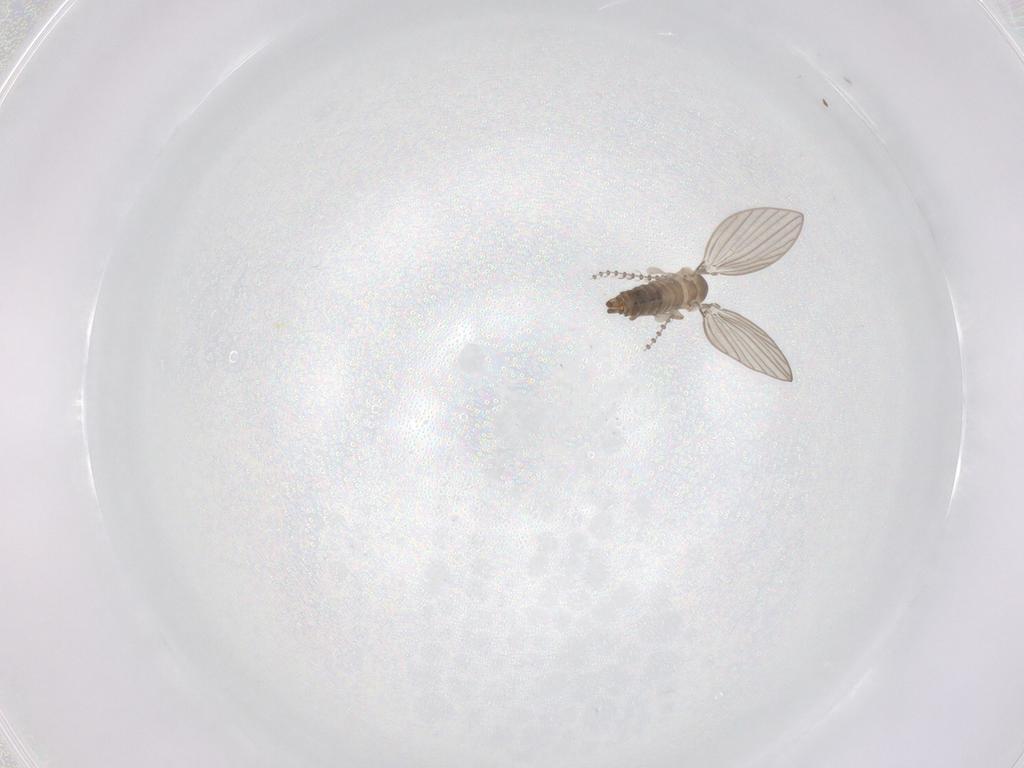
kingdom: Animalia
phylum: Arthropoda
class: Insecta
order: Diptera
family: Psychodidae
